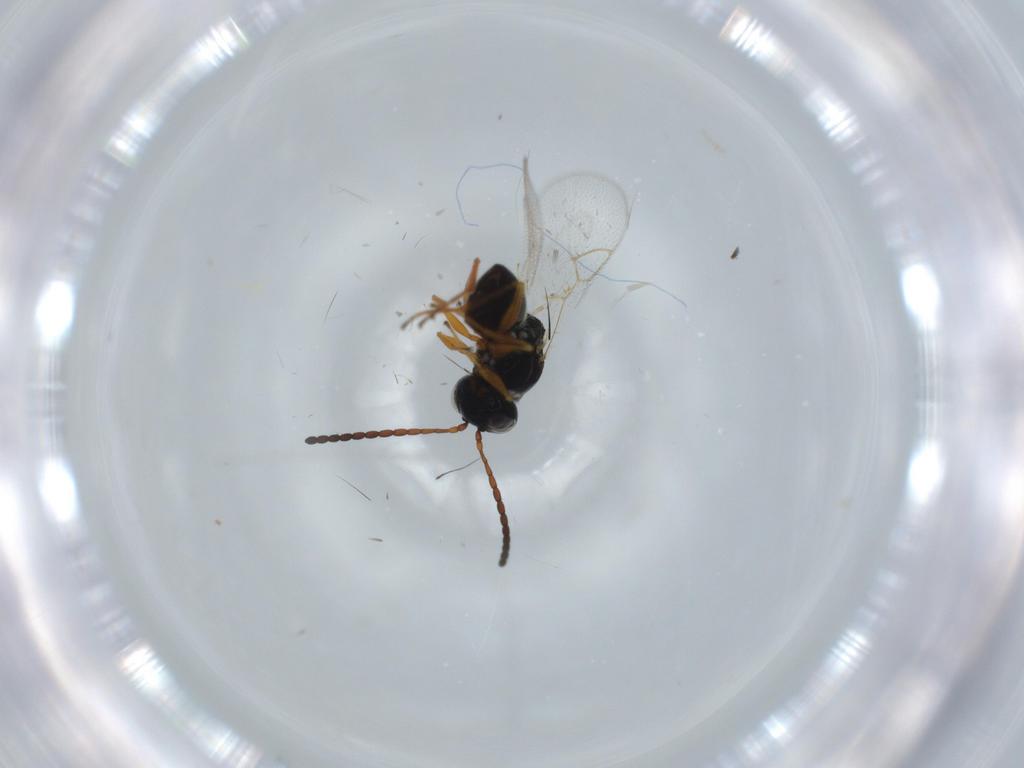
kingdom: Animalia
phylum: Arthropoda
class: Insecta
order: Hymenoptera
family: Figitidae
